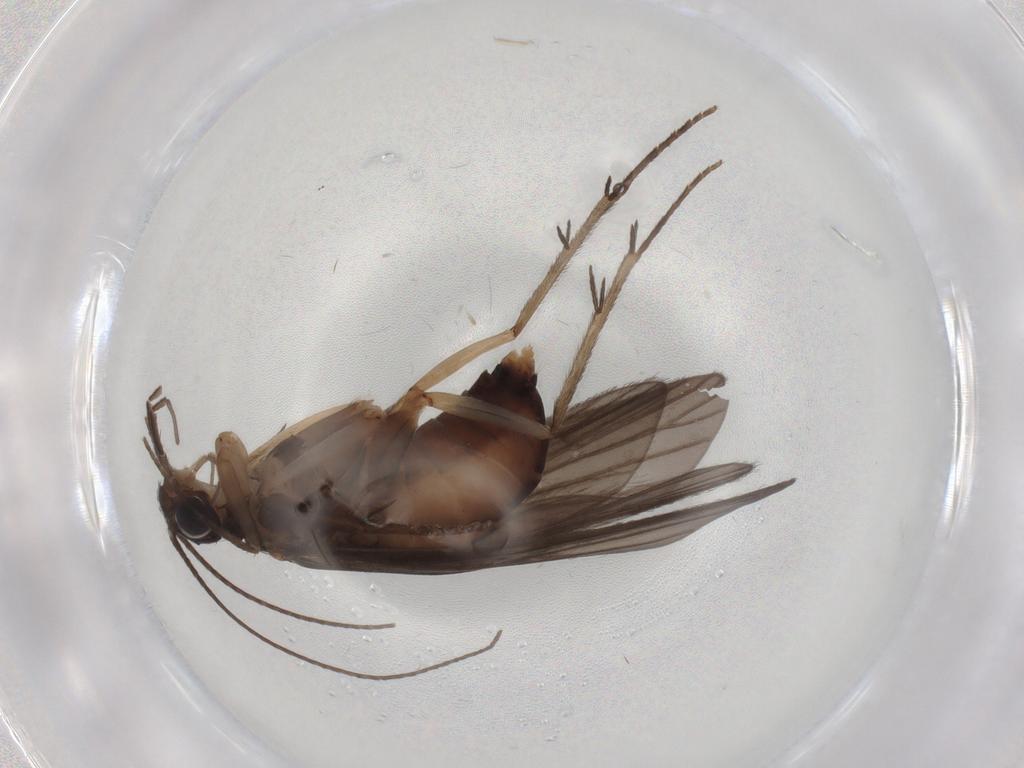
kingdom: Animalia
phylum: Arthropoda
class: Insecta
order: Trichoptera
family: Philopotamidae
